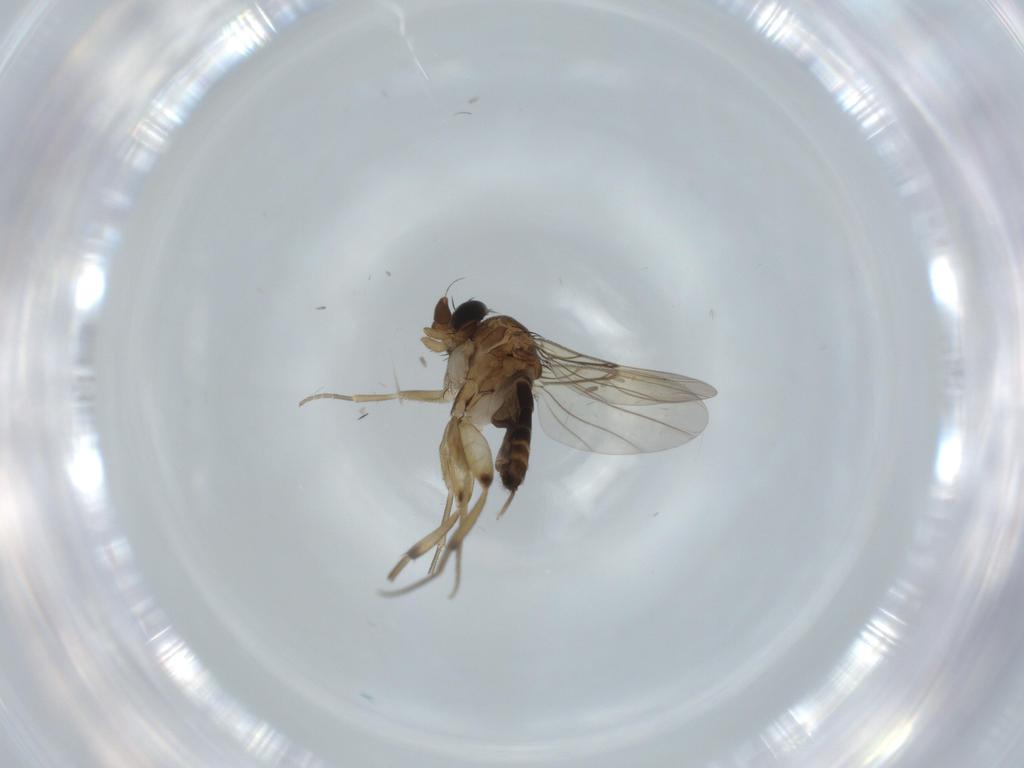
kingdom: Animalia
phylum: Arthropoda
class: Insecta
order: Diptera
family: Phoridae
